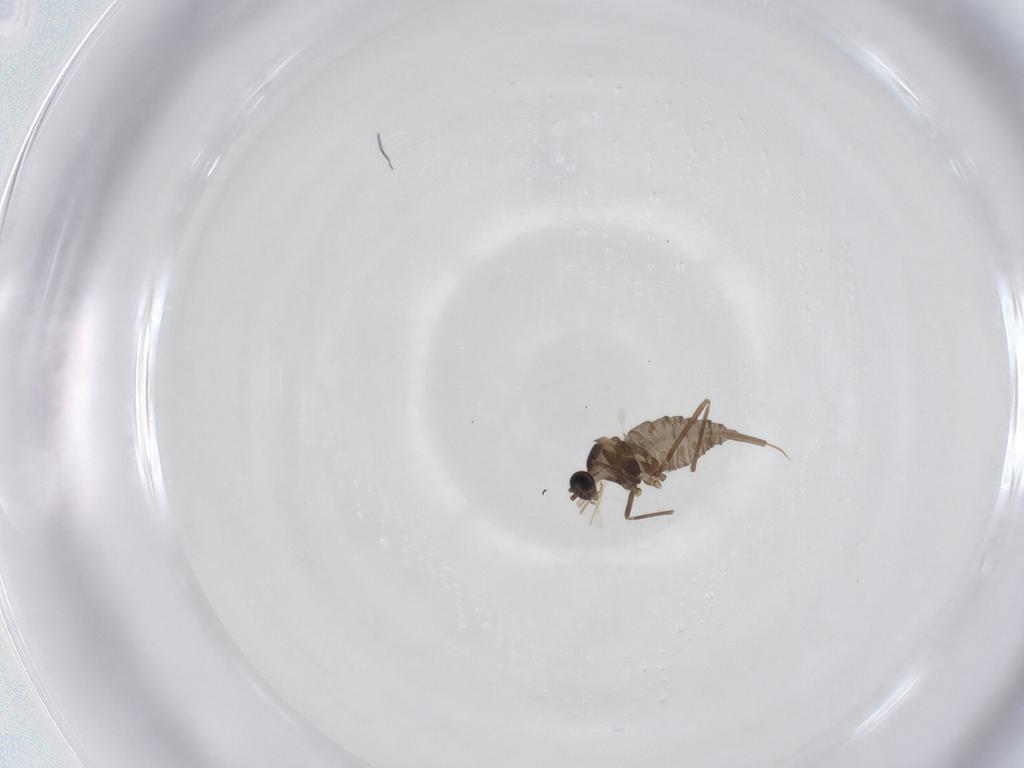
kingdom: Animalia
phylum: Arthropoda
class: Insecta
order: Diptera
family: Cecidomyiidae
